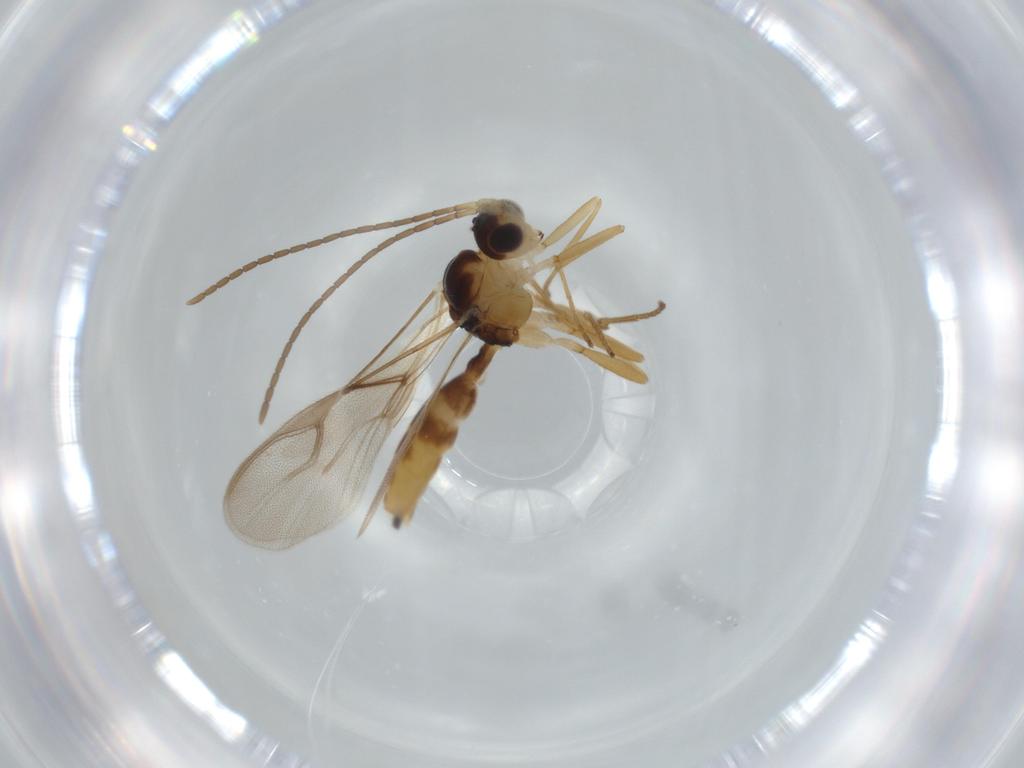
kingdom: Animalia
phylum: Arthropoda
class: Insecta
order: Hymenoptera
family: Braconidae
